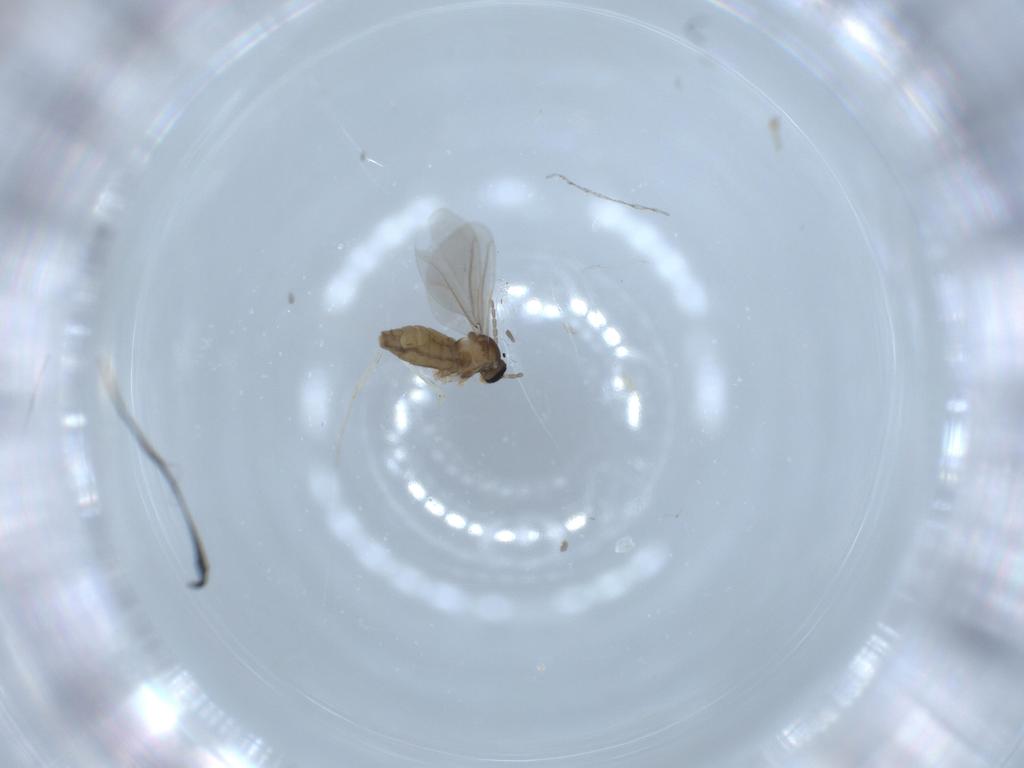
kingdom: Animalia
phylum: Arthropoda
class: Insecta
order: Diptera
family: Cecidomyiidae
